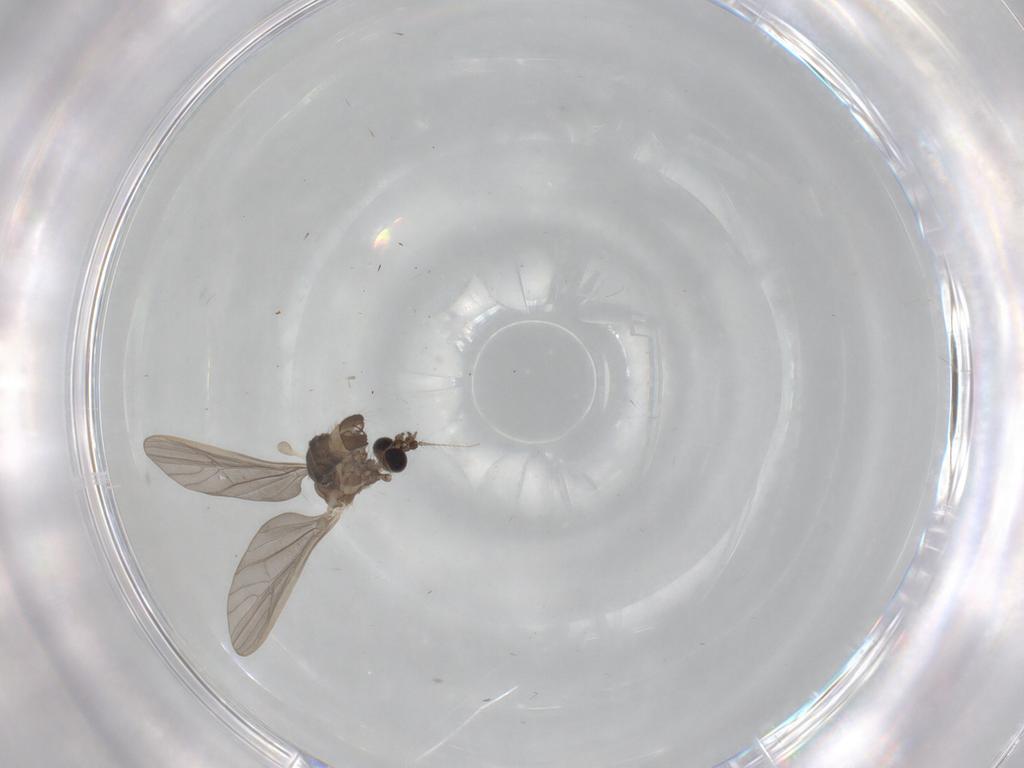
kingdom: Animalia
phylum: Arthropoda
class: Insecta
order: Diptera
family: Limoniidae
